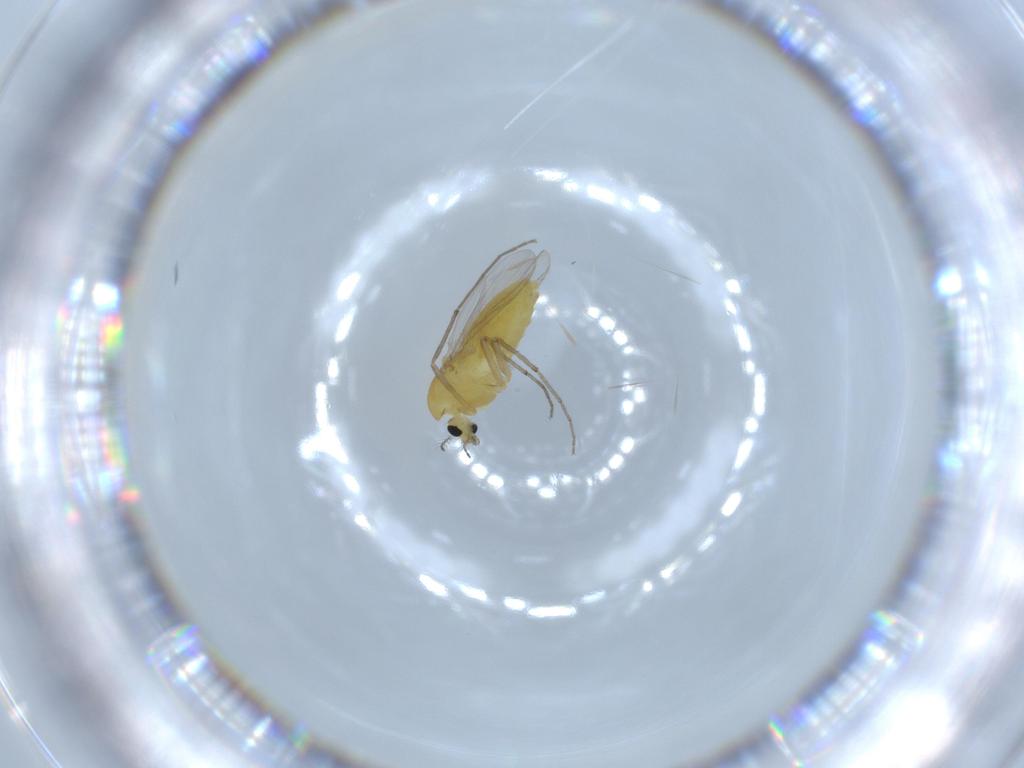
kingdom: Animalia
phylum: Arthropoda
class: Insecta
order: Diptera
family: Chironomidae
